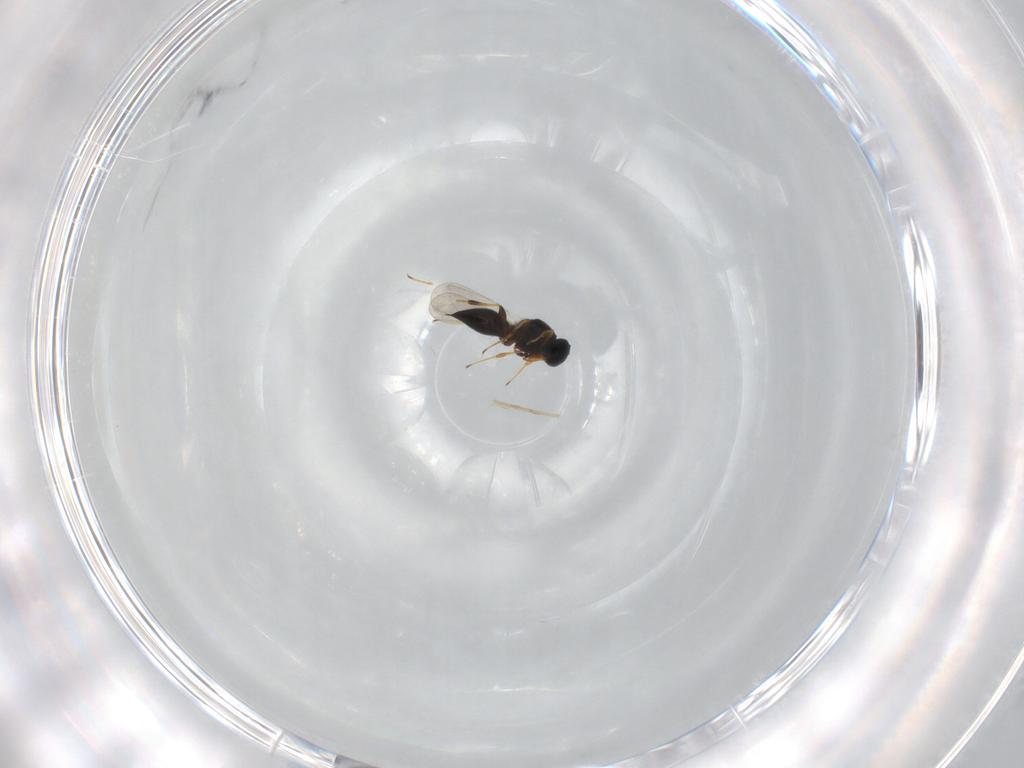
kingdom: Animalia
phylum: Arthropoda
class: Insecta
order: Hymenoptera
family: Platygastridae
